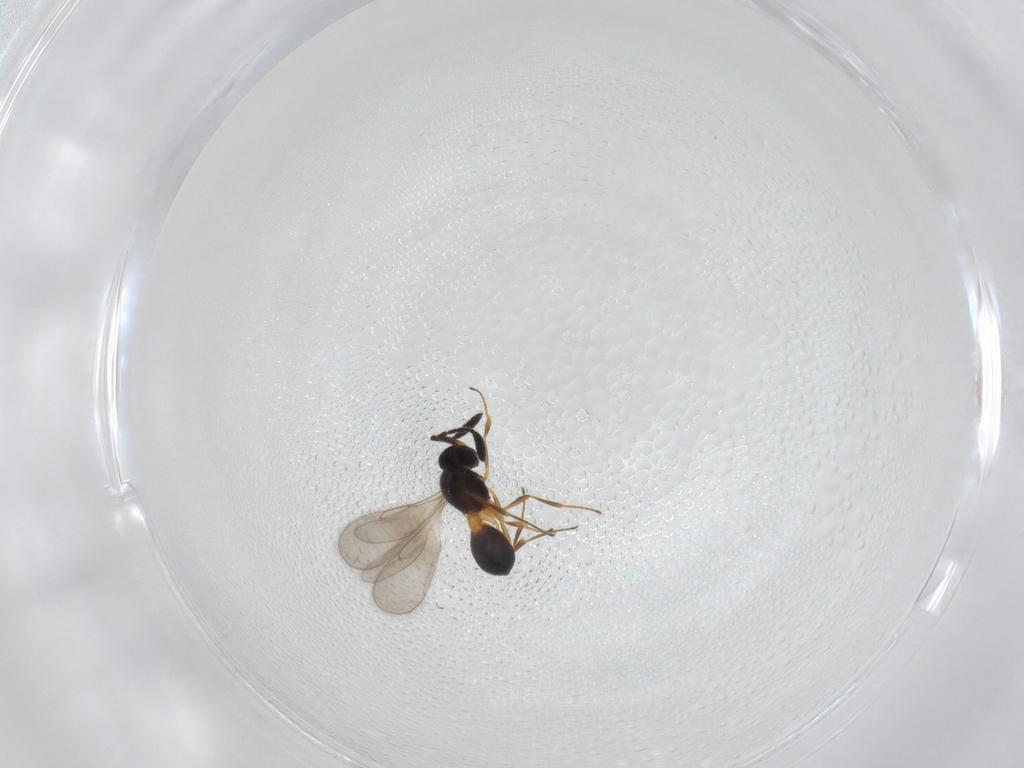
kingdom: Animalia
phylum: Arthropoda
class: Insecta
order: Hymenoptera
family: Scelionidae
